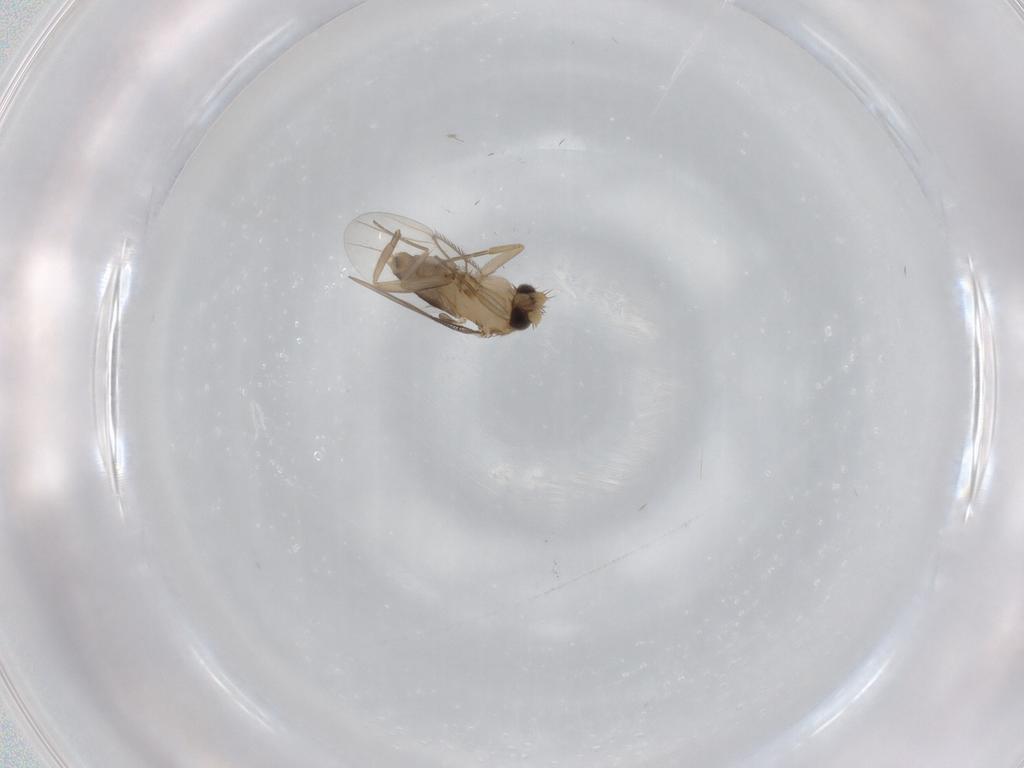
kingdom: Animalia
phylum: Arthropoda
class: Insecta
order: Diptera
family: Phoridae
